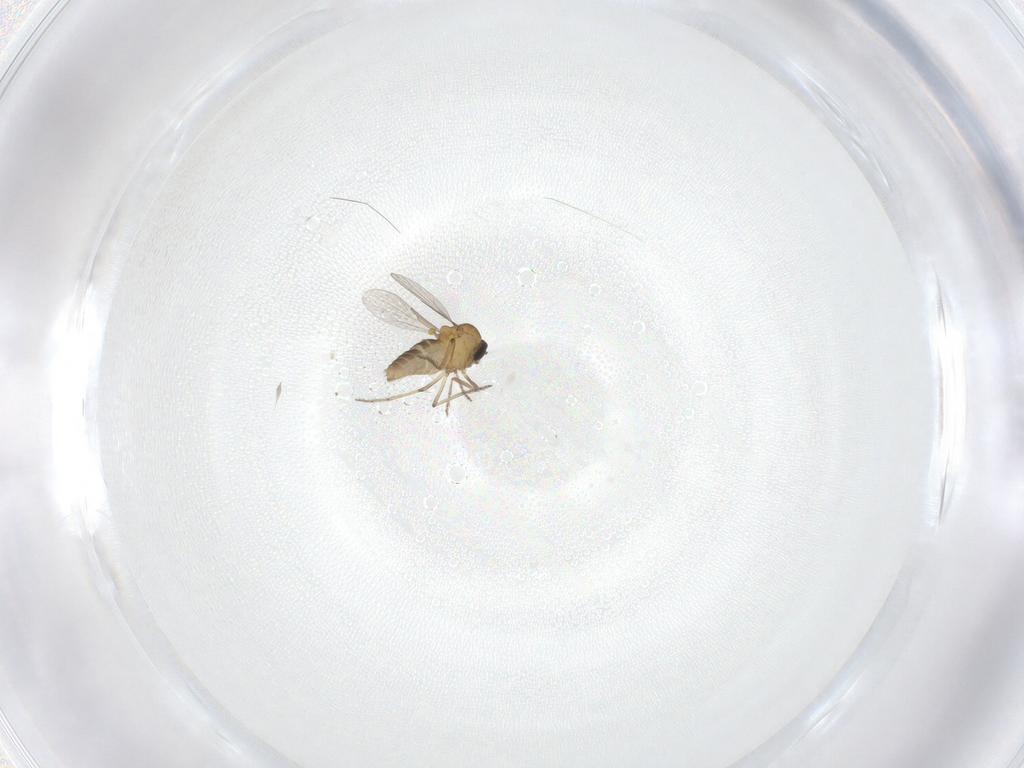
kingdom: Animalia
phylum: Arthropoda
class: Insecta
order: Diptera
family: Ceratopogonidae
